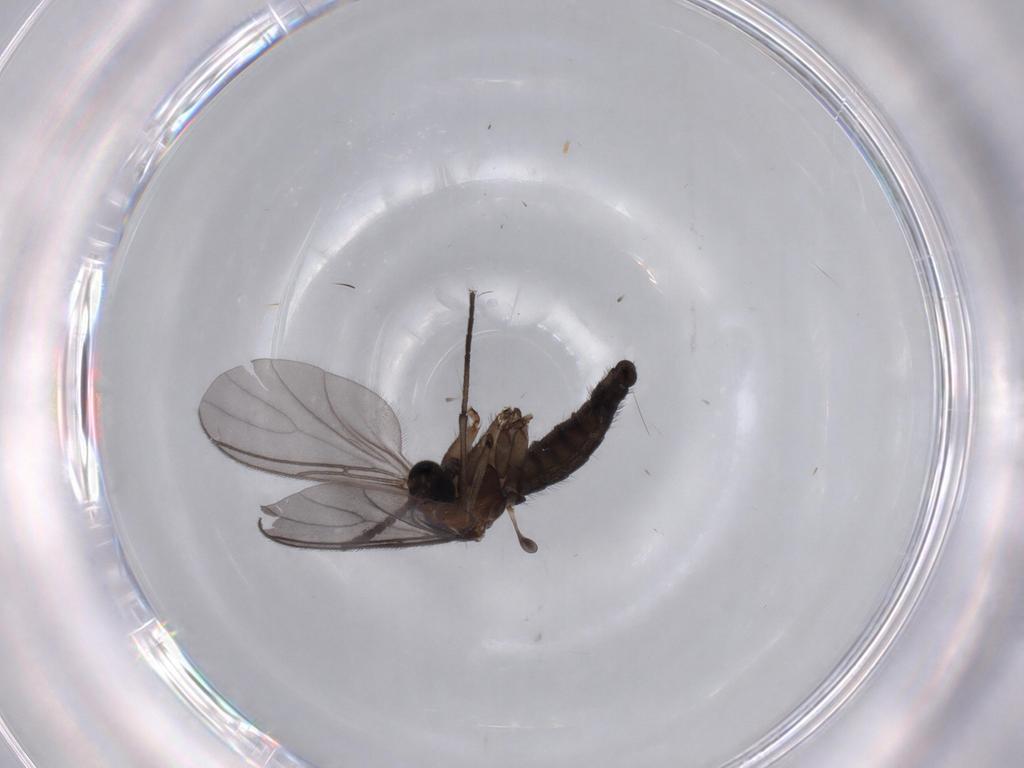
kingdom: Animalia
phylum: Arthropoda
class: Insecta
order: Diptera
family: Sciaridae
